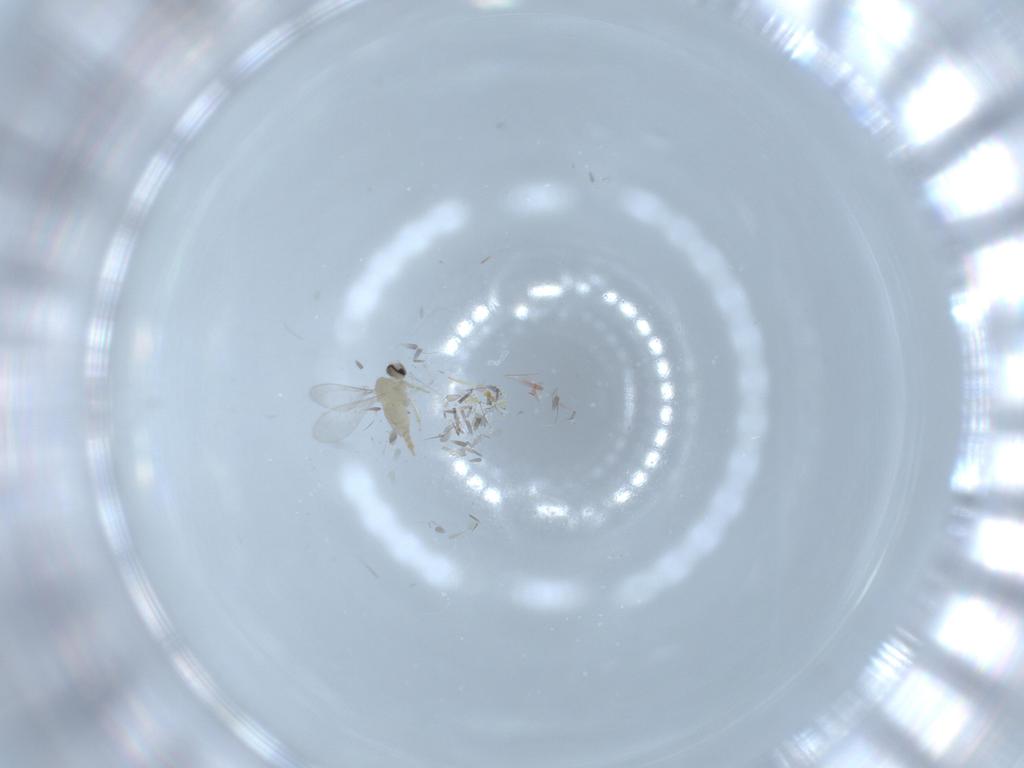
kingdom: Animalia
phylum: Arthropoda
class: Insecta
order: Diptera
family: Cecidomyiidae
